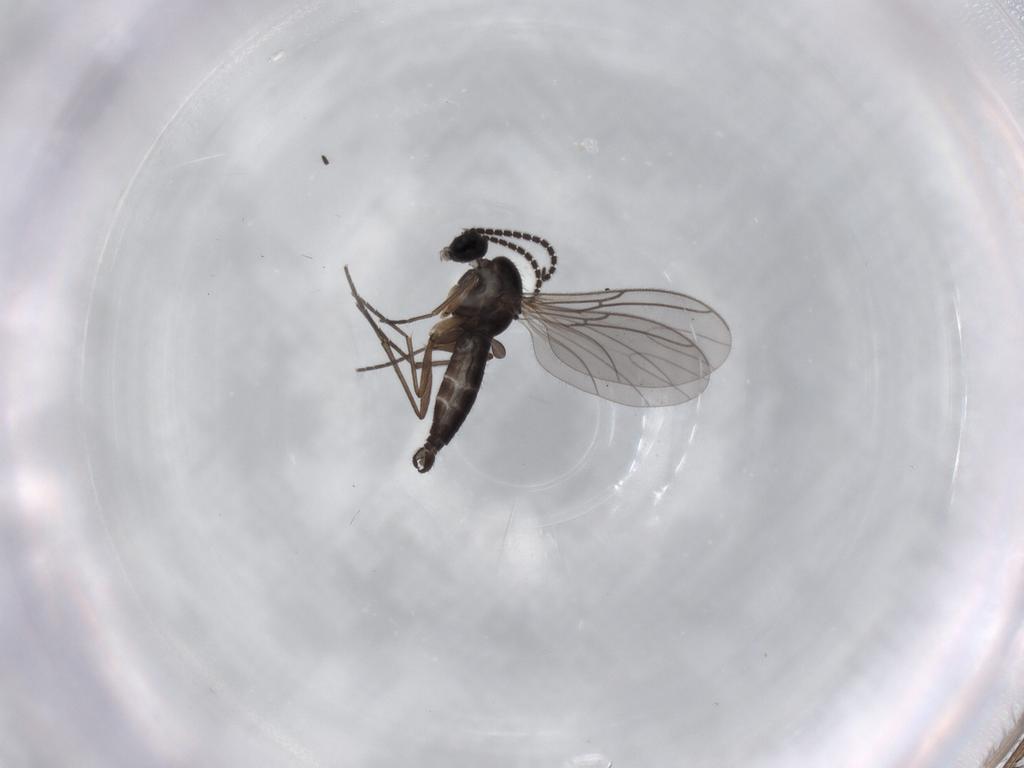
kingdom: Animalia
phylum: Arthropoda
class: Insecta
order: Diptera
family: Sciaridae
